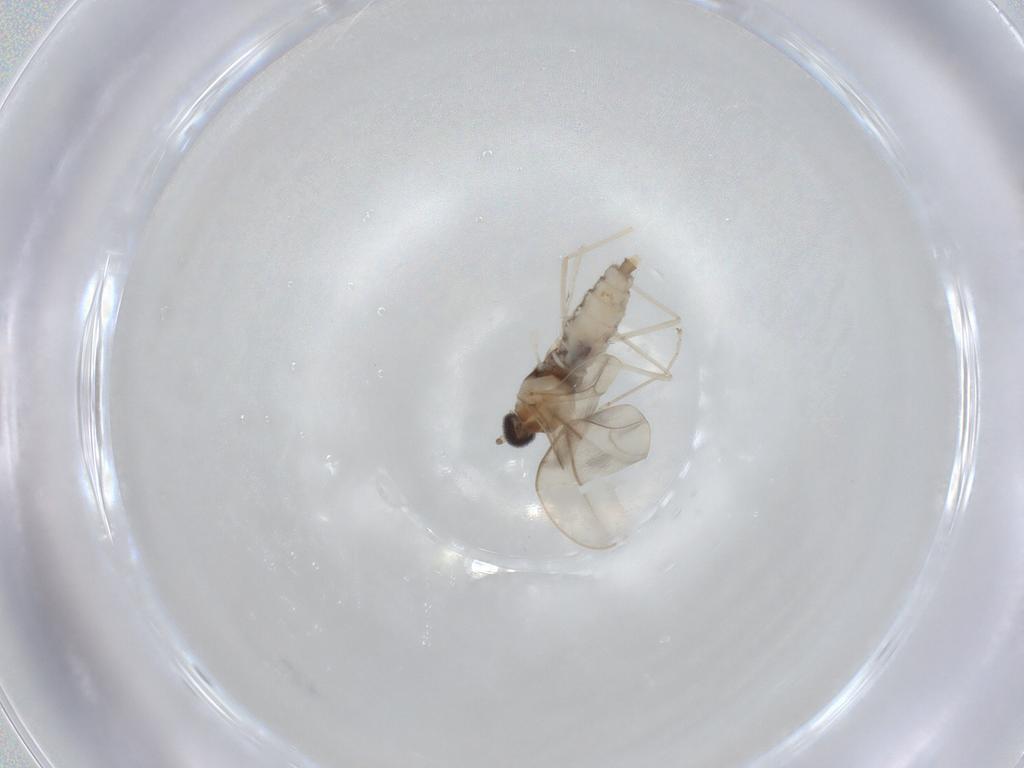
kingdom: Animalia
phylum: Arthropoda
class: Insecta
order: Diptera
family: Cecidomyiidae
